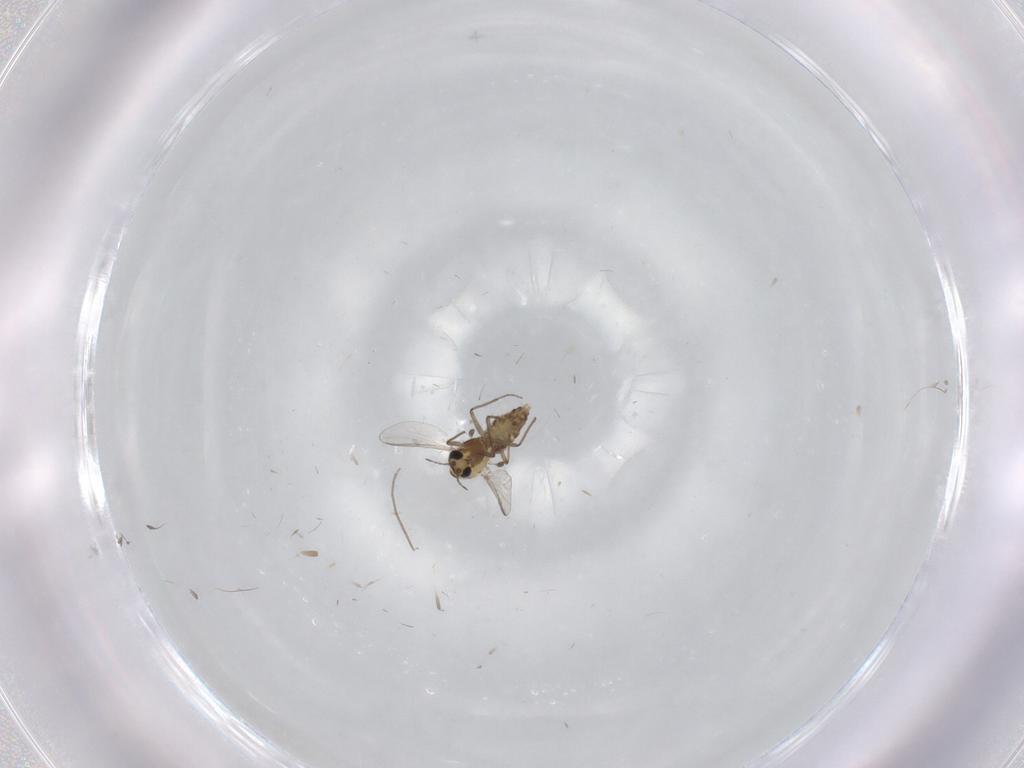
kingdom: Animalia
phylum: Arthropoda
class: Insecta
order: Diptera
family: Chironomidae
